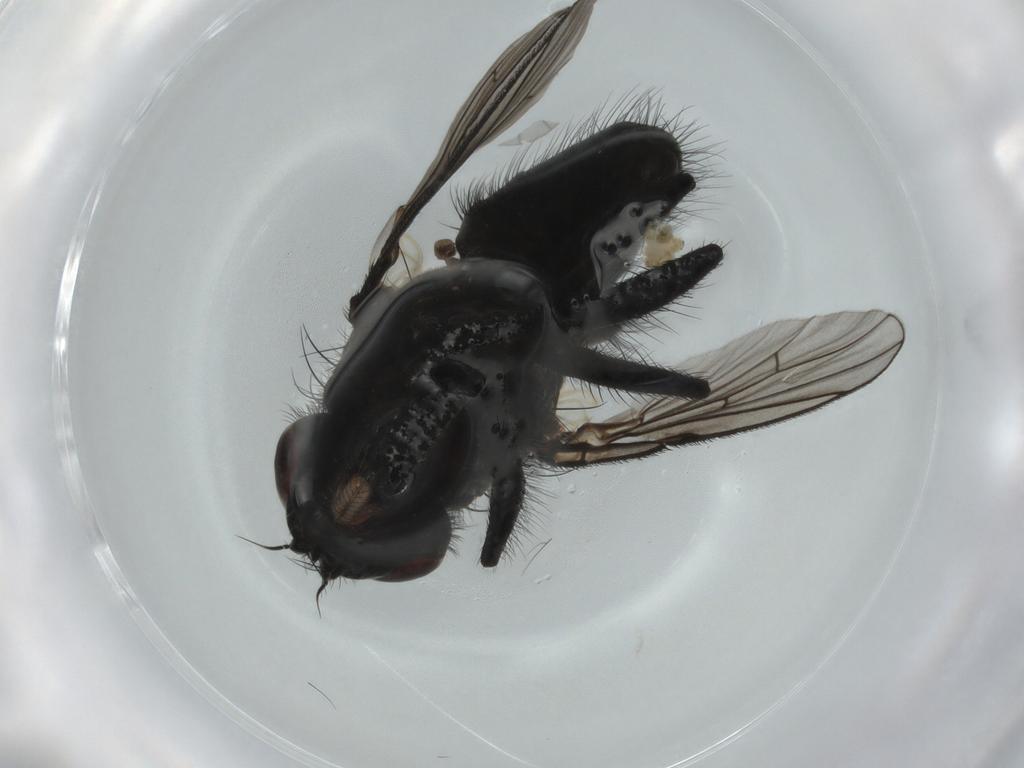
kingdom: Animalia
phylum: Arthropoda
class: Insecta
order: Diptera
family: Muscidae
